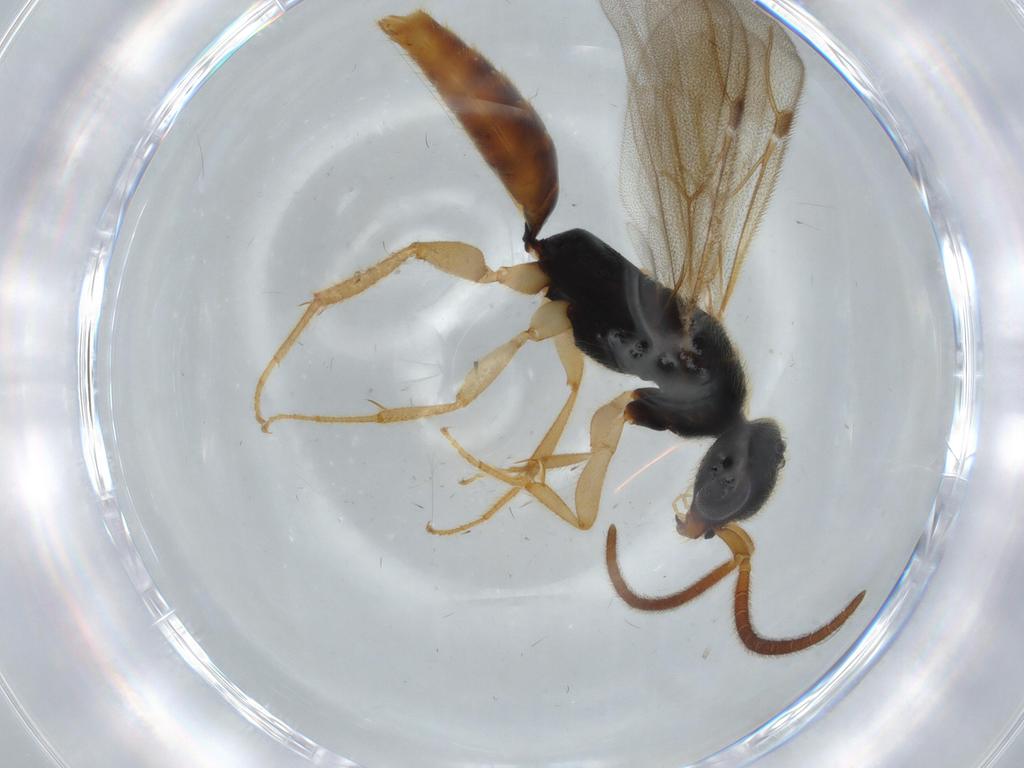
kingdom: Animalia
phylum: Arthropoda
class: Insecta
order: Hymenoptera
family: Bethylidae
